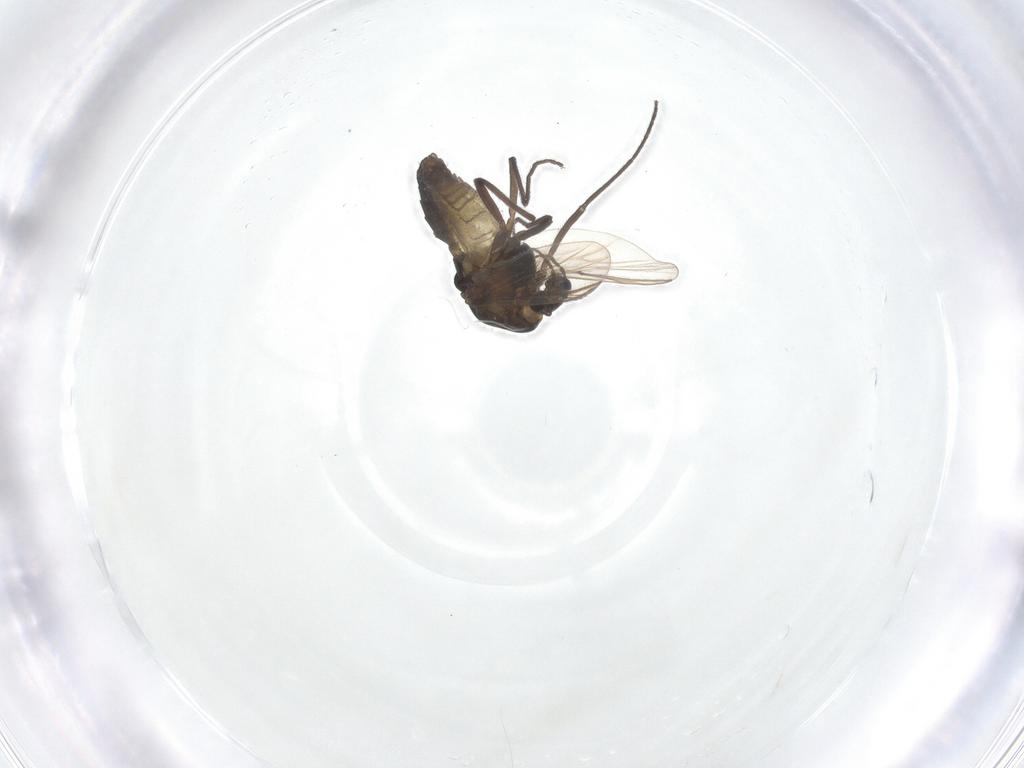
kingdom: Animalia
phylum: Arthropoda
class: Insecta
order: Diptera
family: Chironomidae
